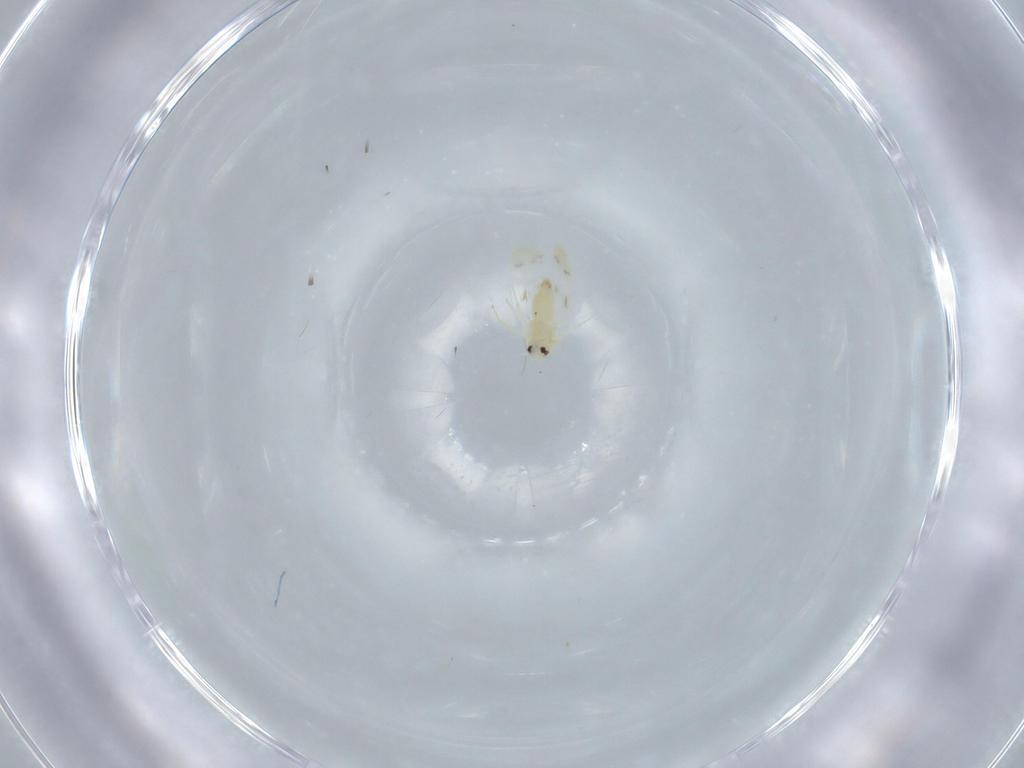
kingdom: Animalia
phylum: Arthropoda
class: Insecta
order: Hemiptera
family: Aleyrodidae
